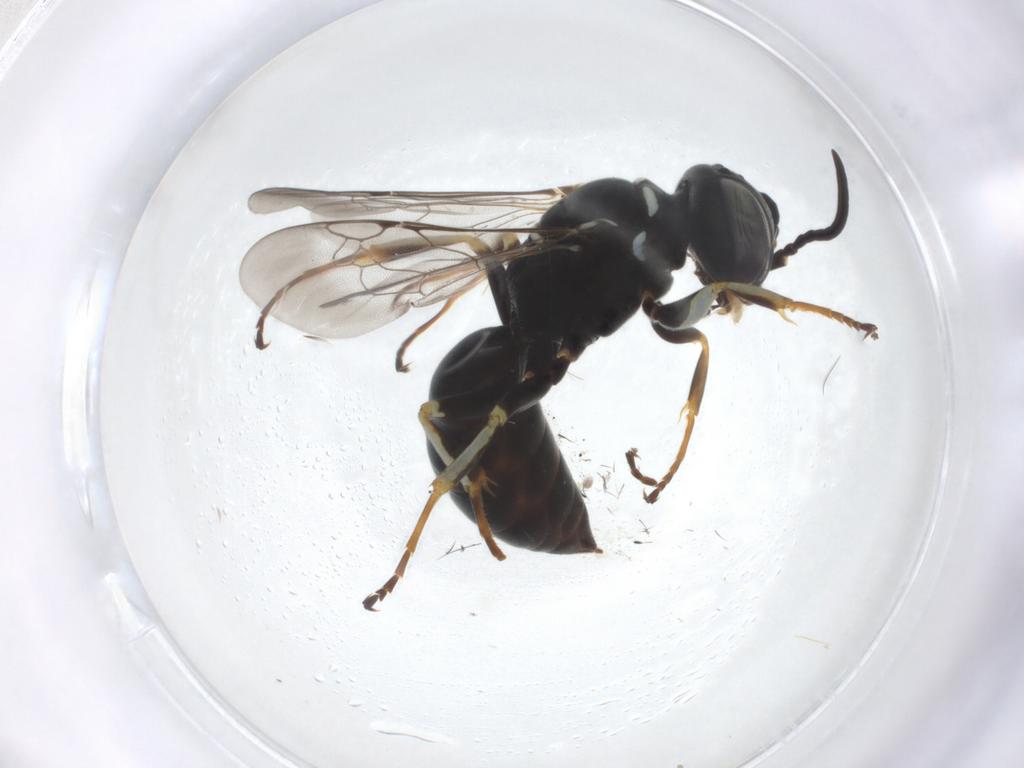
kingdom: Animalia
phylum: Arthropoda
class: Insecta
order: Hymenoptera
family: Crabronidae
